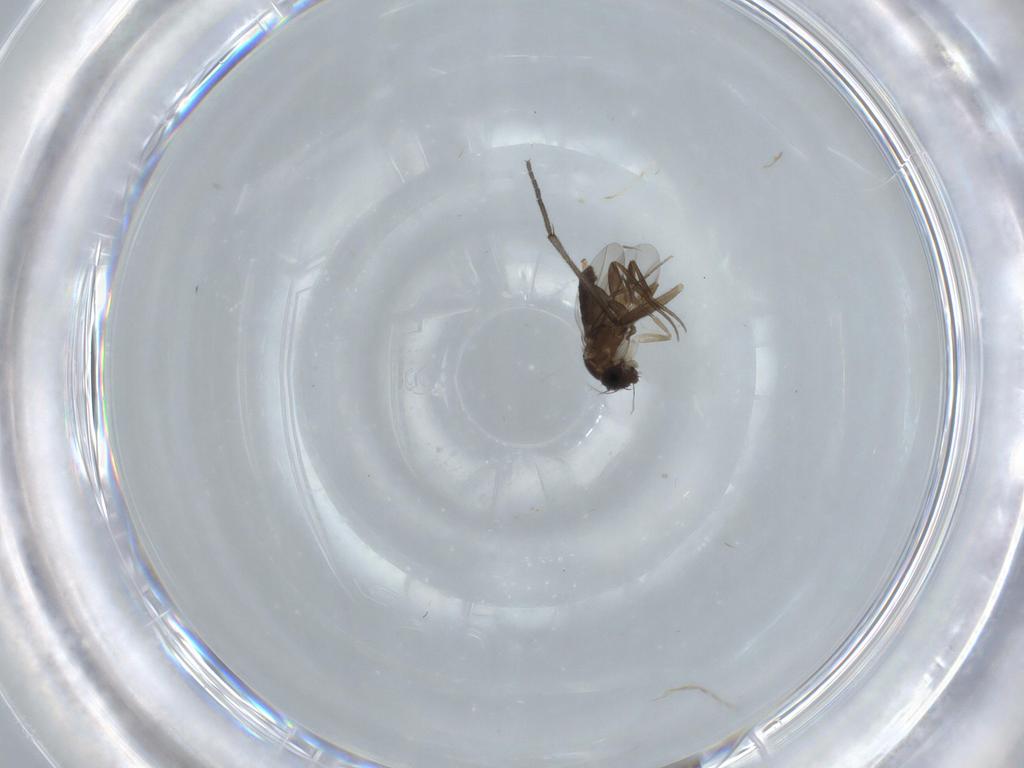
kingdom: Animalia
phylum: Arthropoda
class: Insecta
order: Diptera
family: Phoridae
